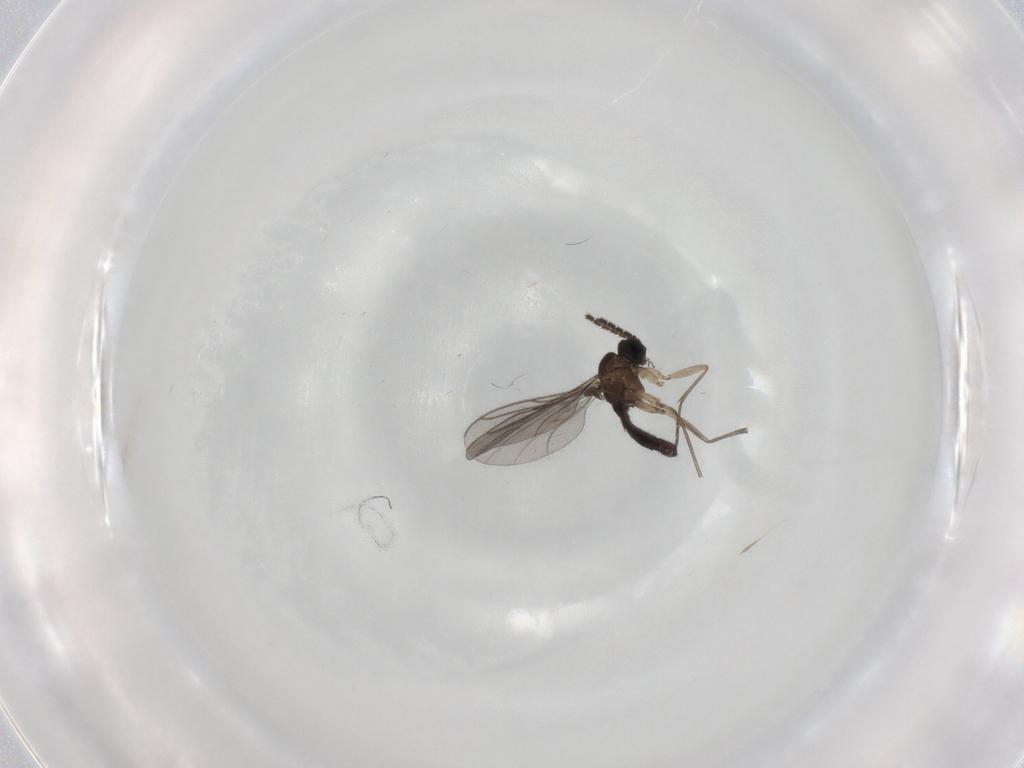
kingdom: Animalia
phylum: Arthropoda
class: Insecta
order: Diptera
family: Sciaridae
